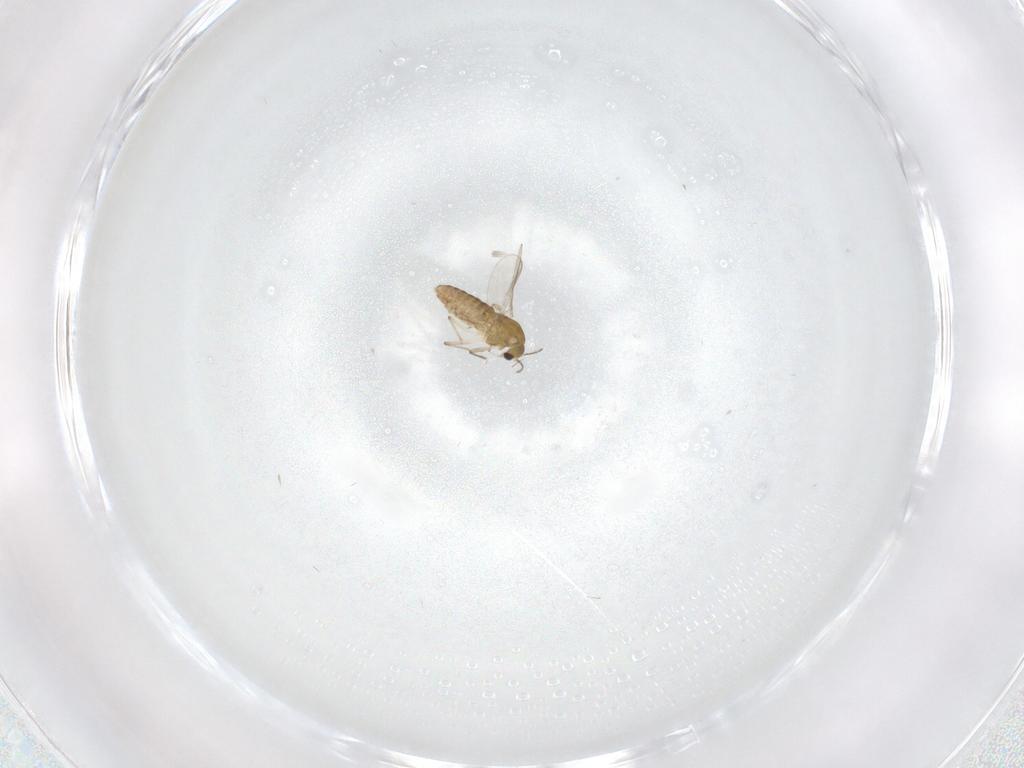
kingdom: Animalia
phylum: Arthropoda
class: Insecta
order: Diptera
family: Chironomidae
